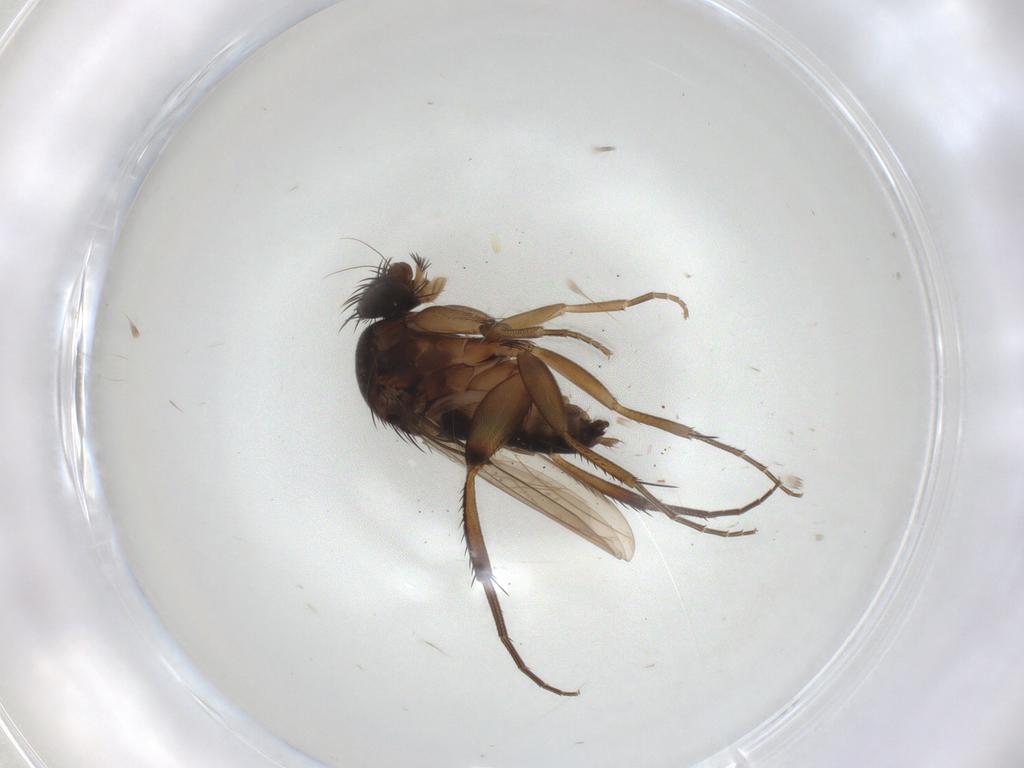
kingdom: Animalia
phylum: Arthropoda
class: Insecta
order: Diptera
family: Phoridae
